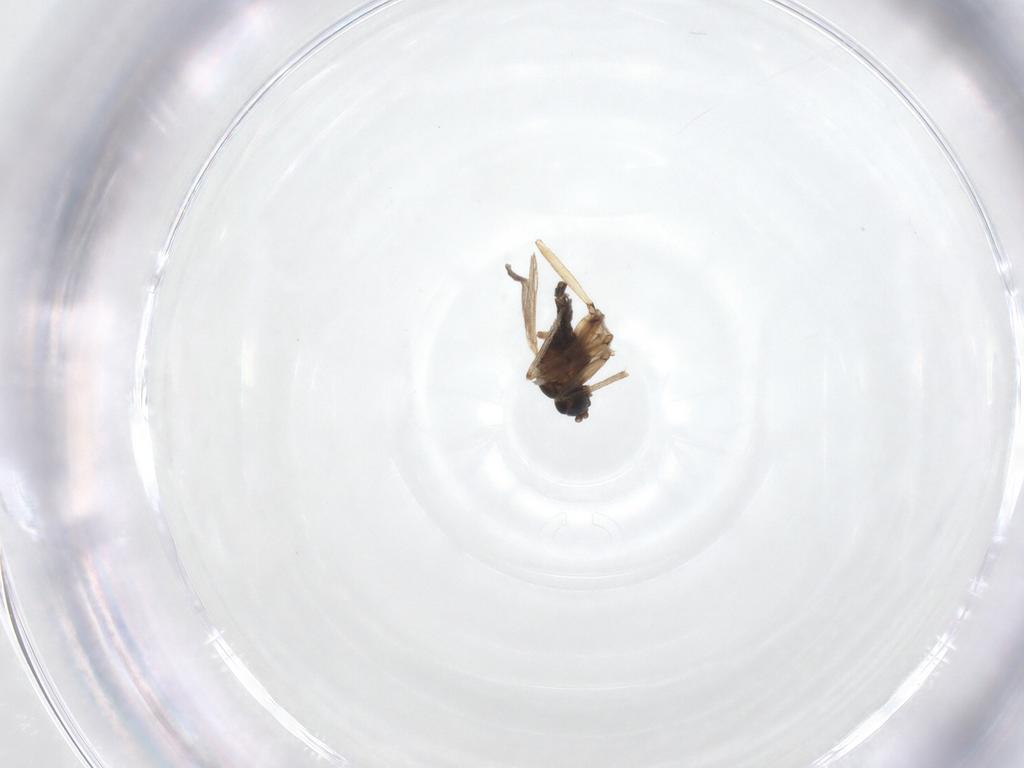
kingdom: Animalia
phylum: Arthropoda
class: Insecta
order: Diptera
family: Sciaridae
